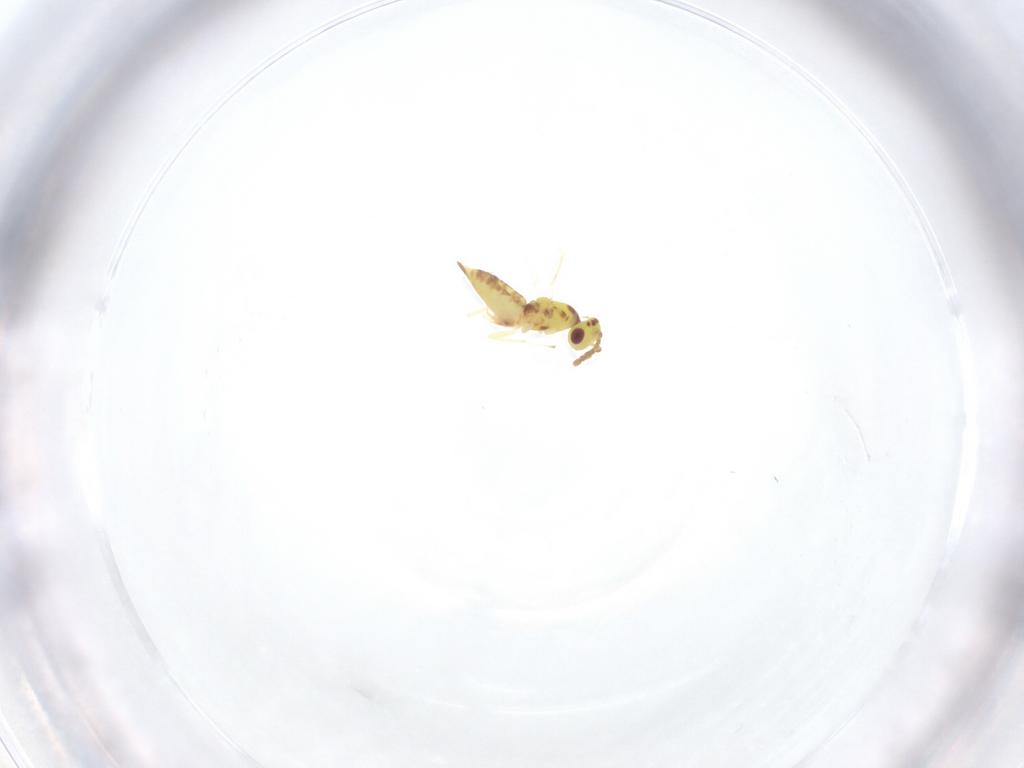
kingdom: Animalia
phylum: Arthropoda
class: Insecta
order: Hymenoptera
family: Eulophidae
